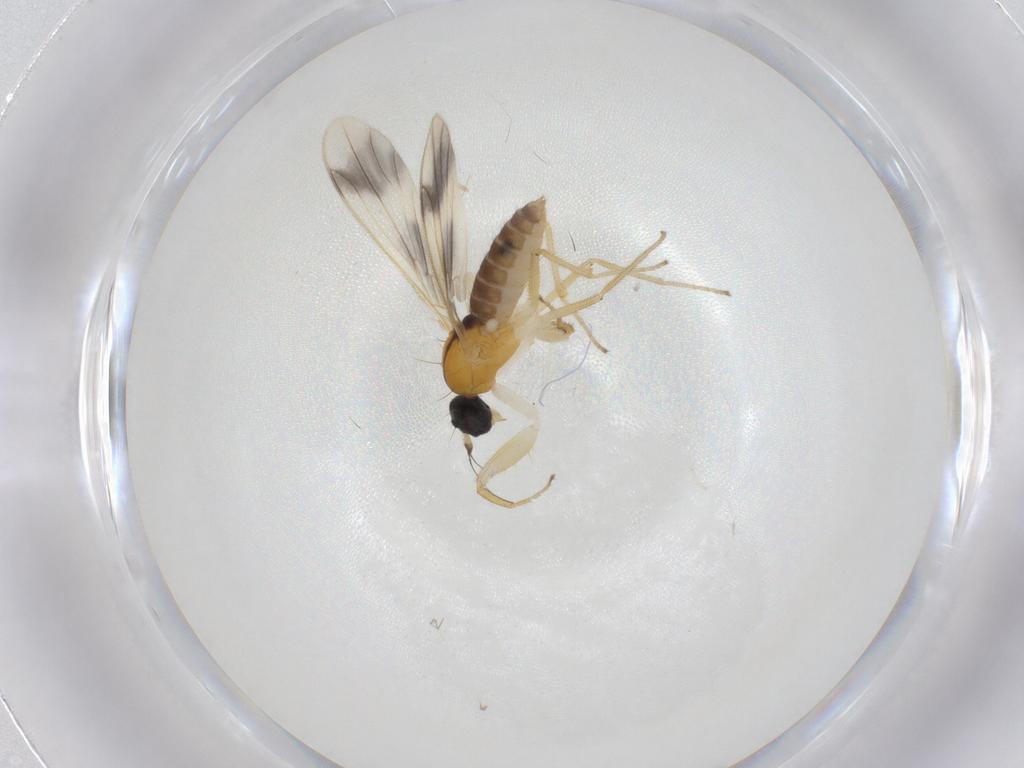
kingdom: Animalia
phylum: Arthropoda
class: Insecta
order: Diptera
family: Empididae
